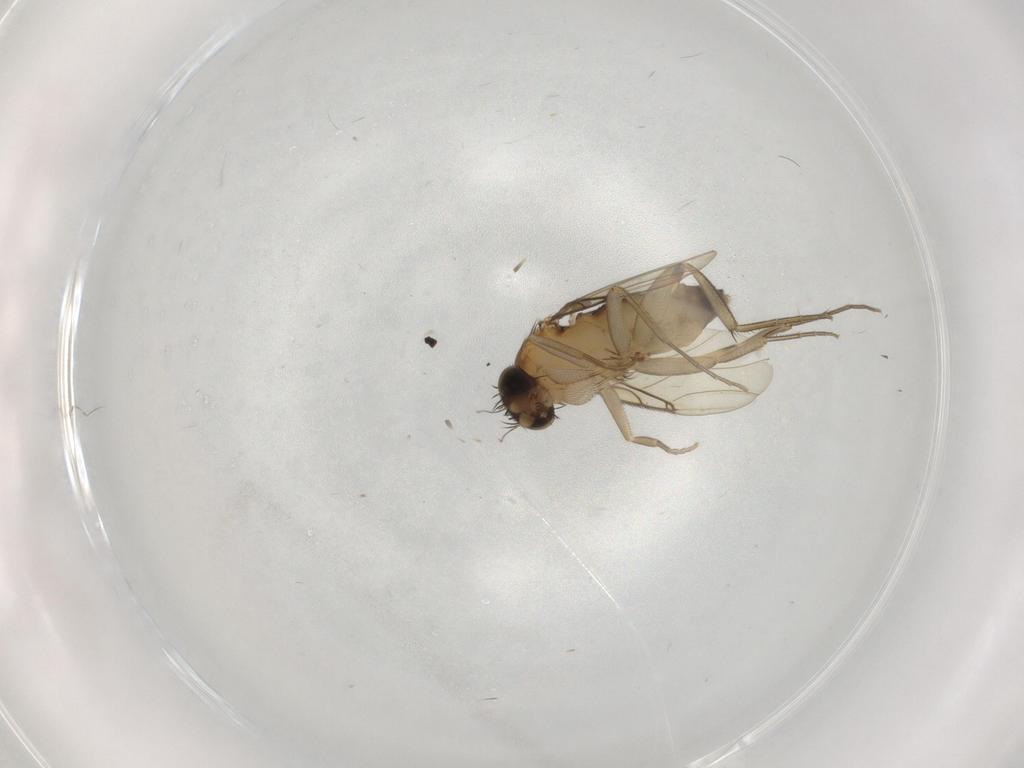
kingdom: Animalia
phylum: Arthropoda
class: Insecta
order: Diptera
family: Phoridae
